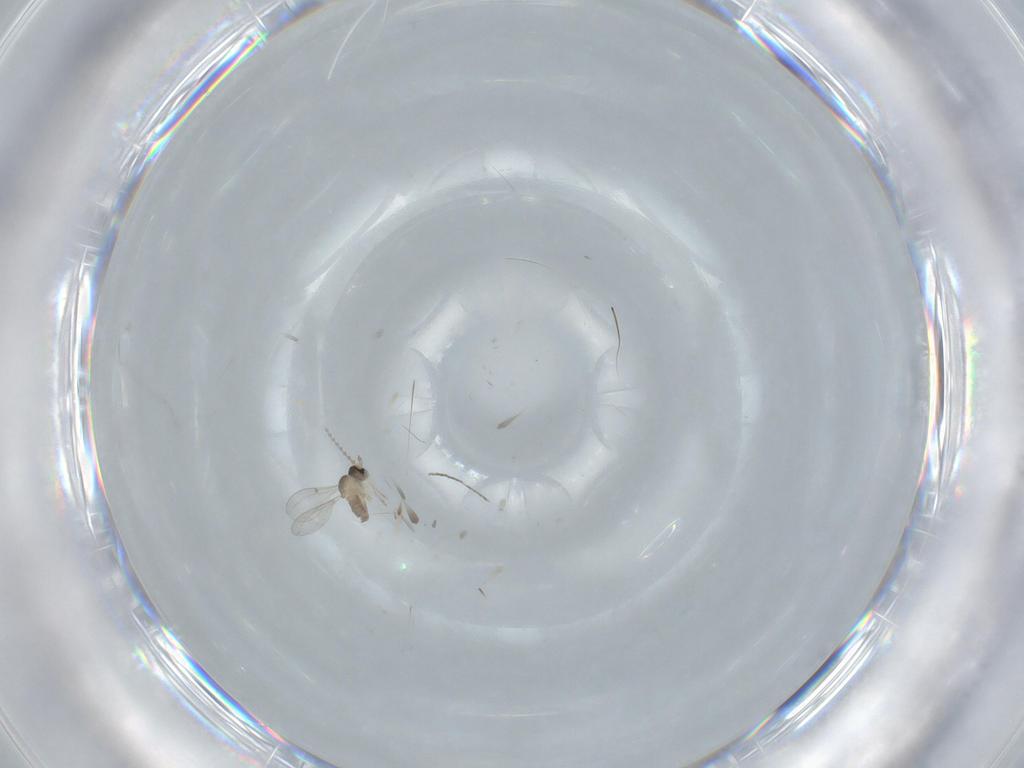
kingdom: Animalia
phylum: Arthropoda
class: Insecta
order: Diptera
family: Cecidomyiidae
